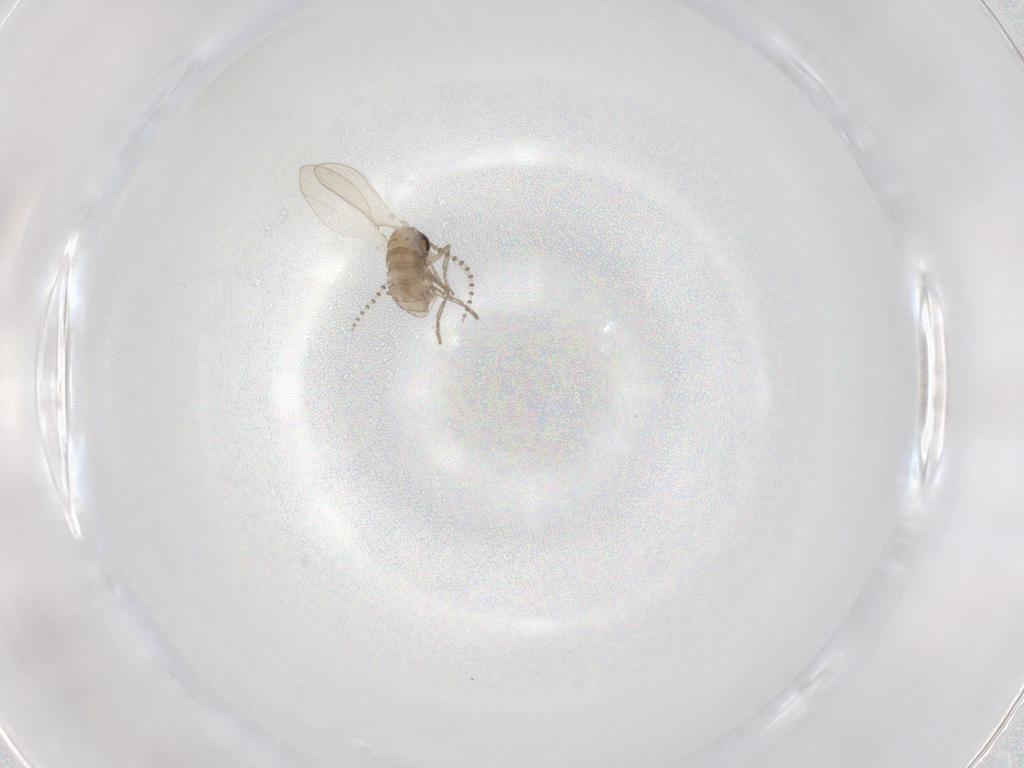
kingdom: Animalia
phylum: Arthropoda
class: Insecta
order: Diptera
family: Psychodidae
